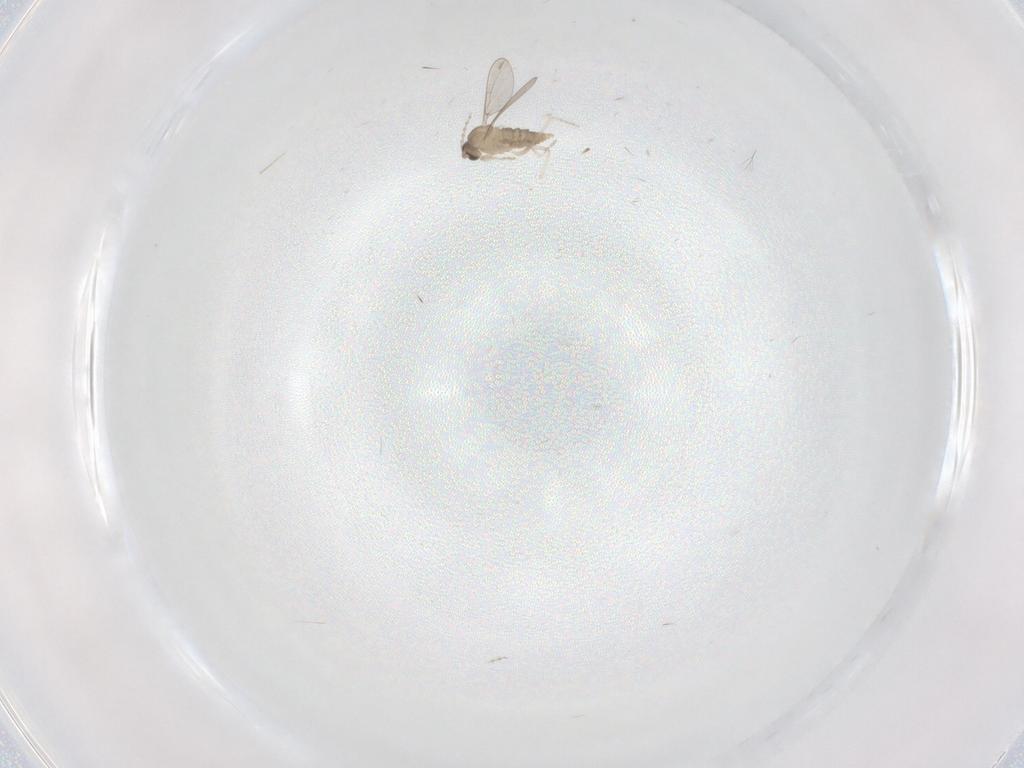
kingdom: Animalia
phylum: Arthropoda
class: Insecta
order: Diptera
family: Cecidomyiidae
